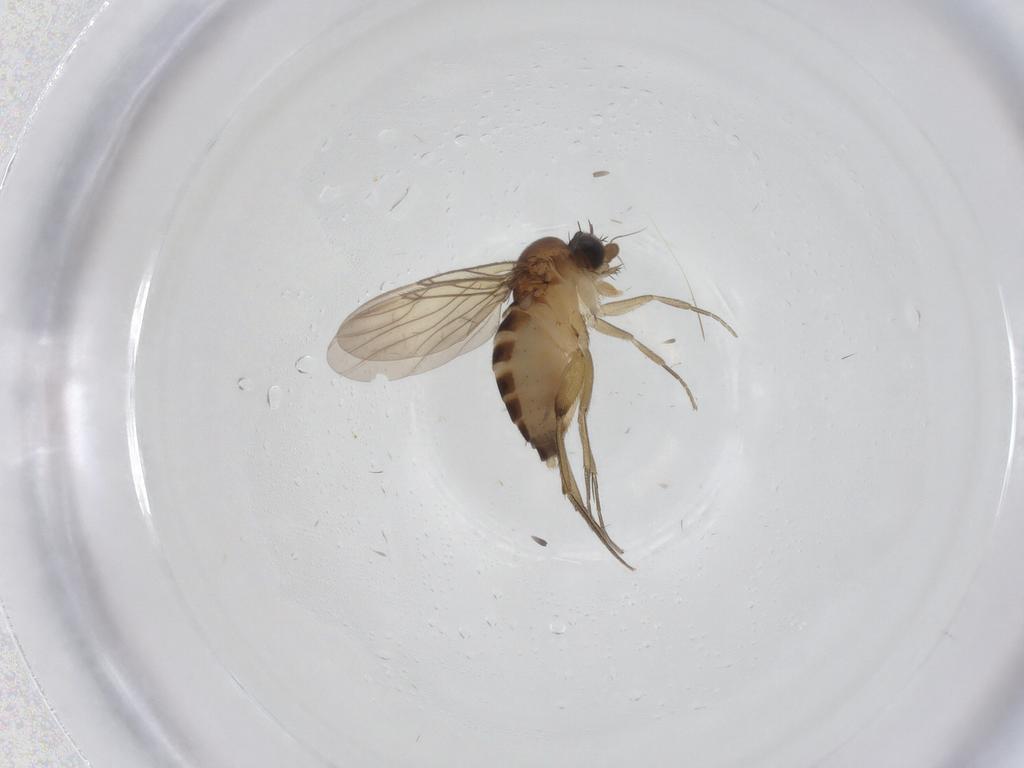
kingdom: Animalia
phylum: Arthropoda
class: Insecta
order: Diptera
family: Phoridae
